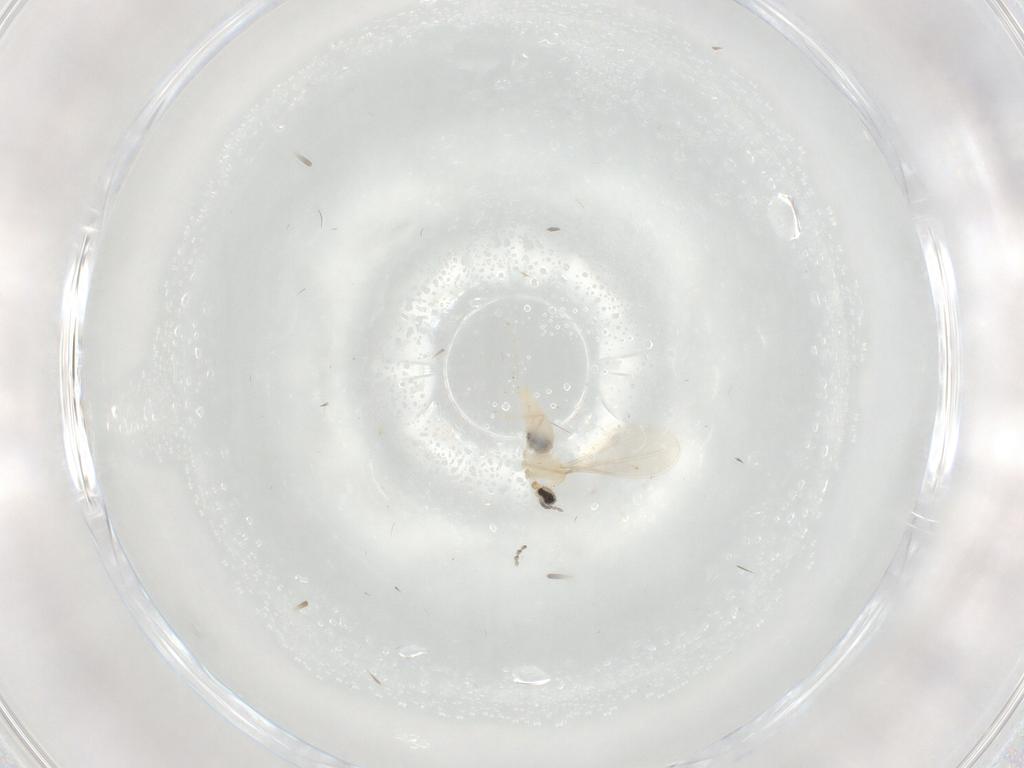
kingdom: Animalia
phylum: Arthropoda
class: Insecta
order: Diptera
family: Cecidomyiidae
